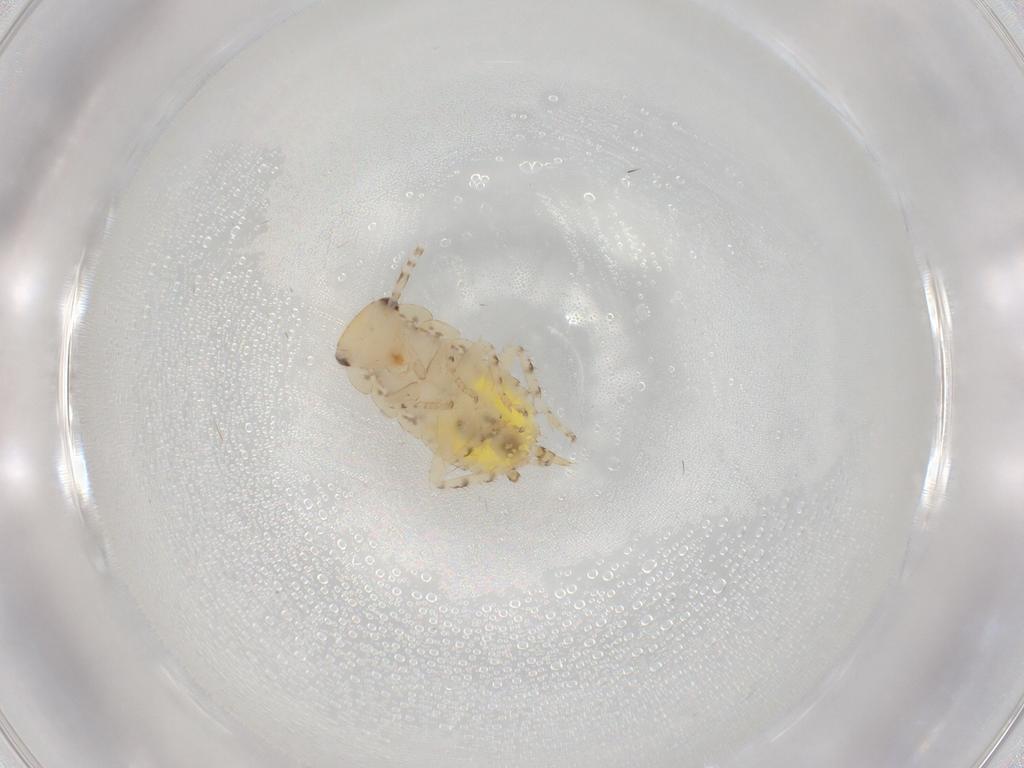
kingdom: Animalia
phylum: Arthropoda
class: Insecta
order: Blattodea
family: Ectobiidae
